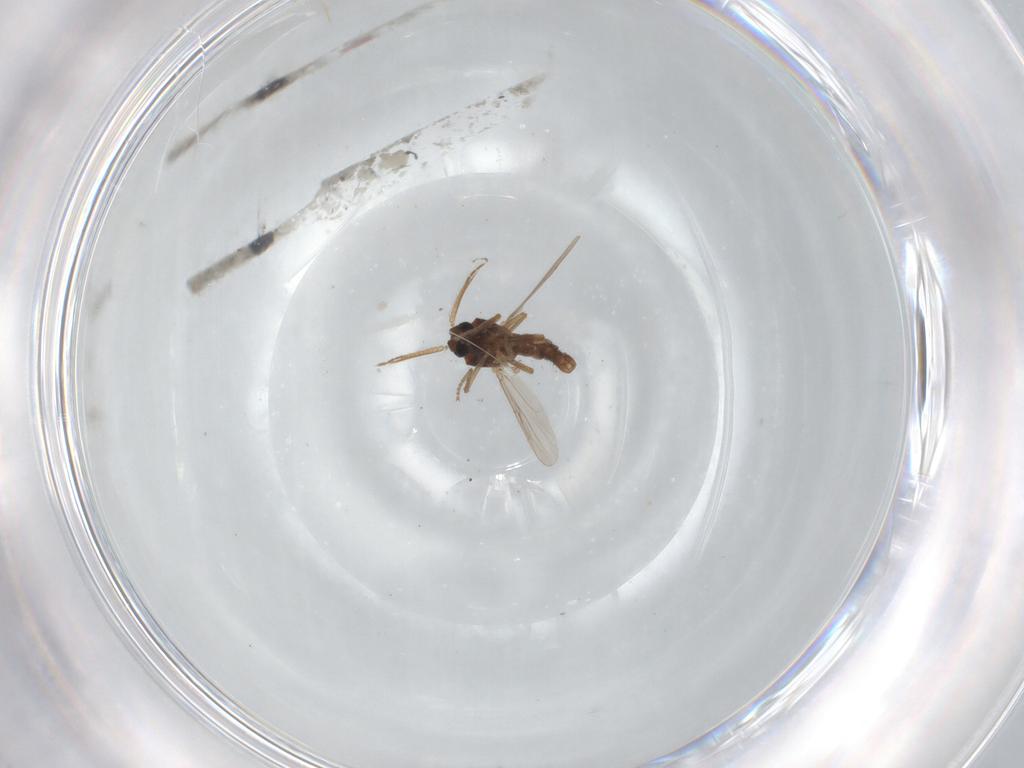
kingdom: Animalia
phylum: Arthropoda
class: Insecta
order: Diptera
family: Ceratopogonidae
